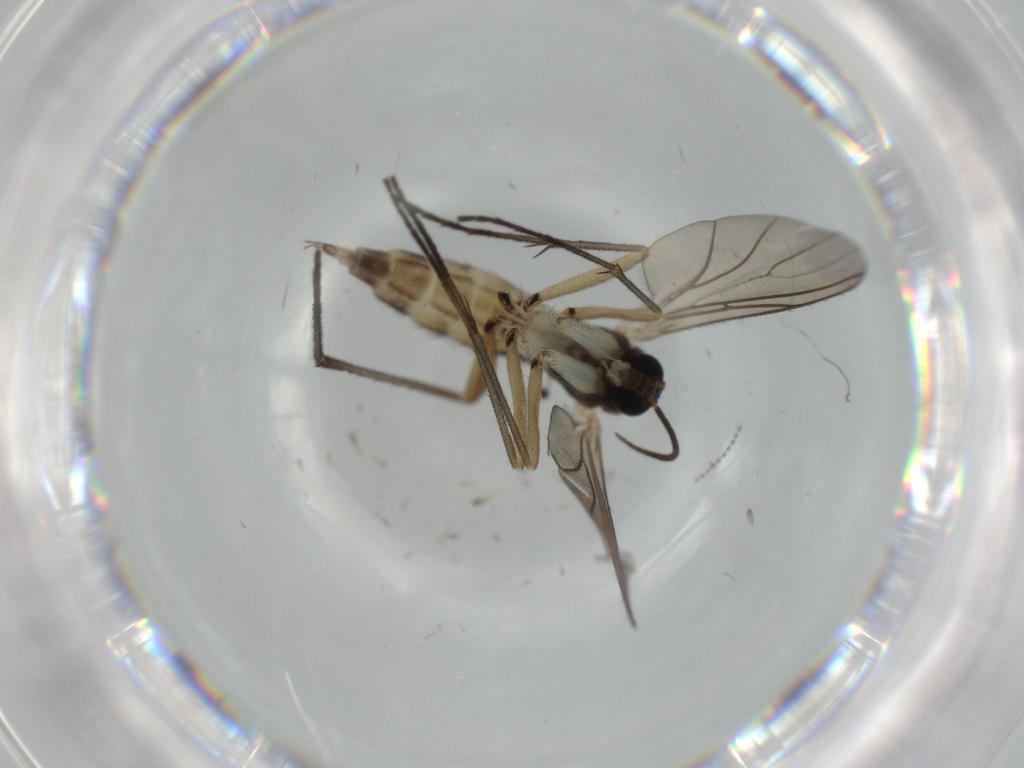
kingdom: Animalia
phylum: Arthropoda
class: Insecta
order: Diptera
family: Sciaridae
